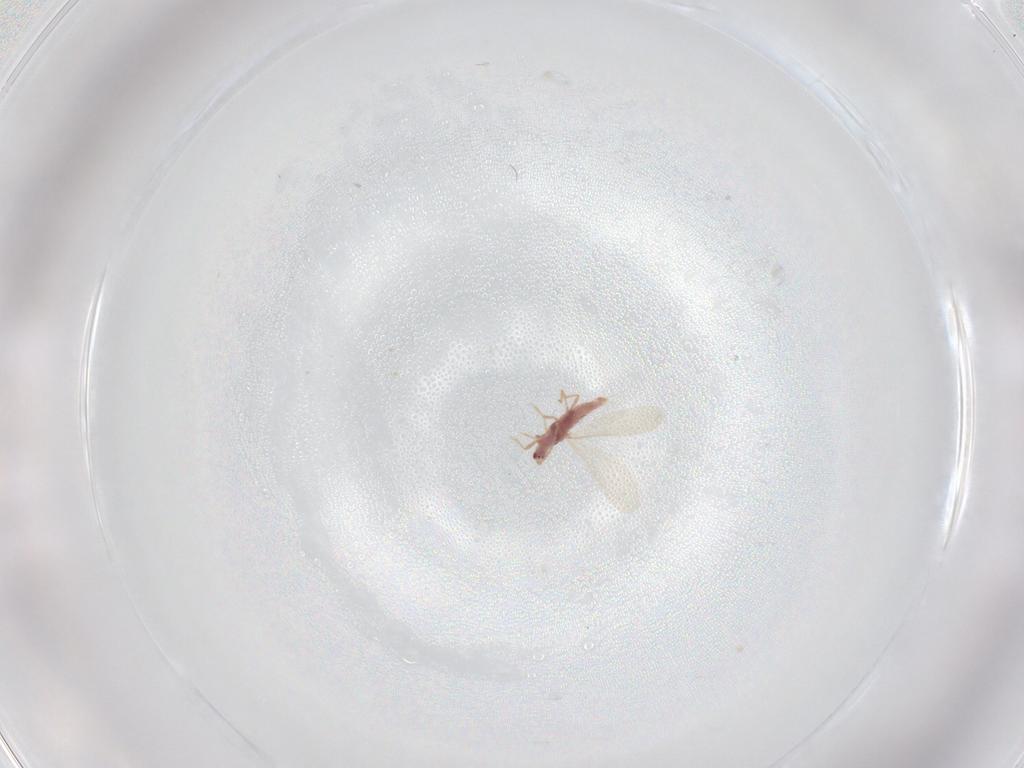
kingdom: Animalia
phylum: Arthropoda
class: Insecta
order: Hemiptera
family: Pseudococcidae
